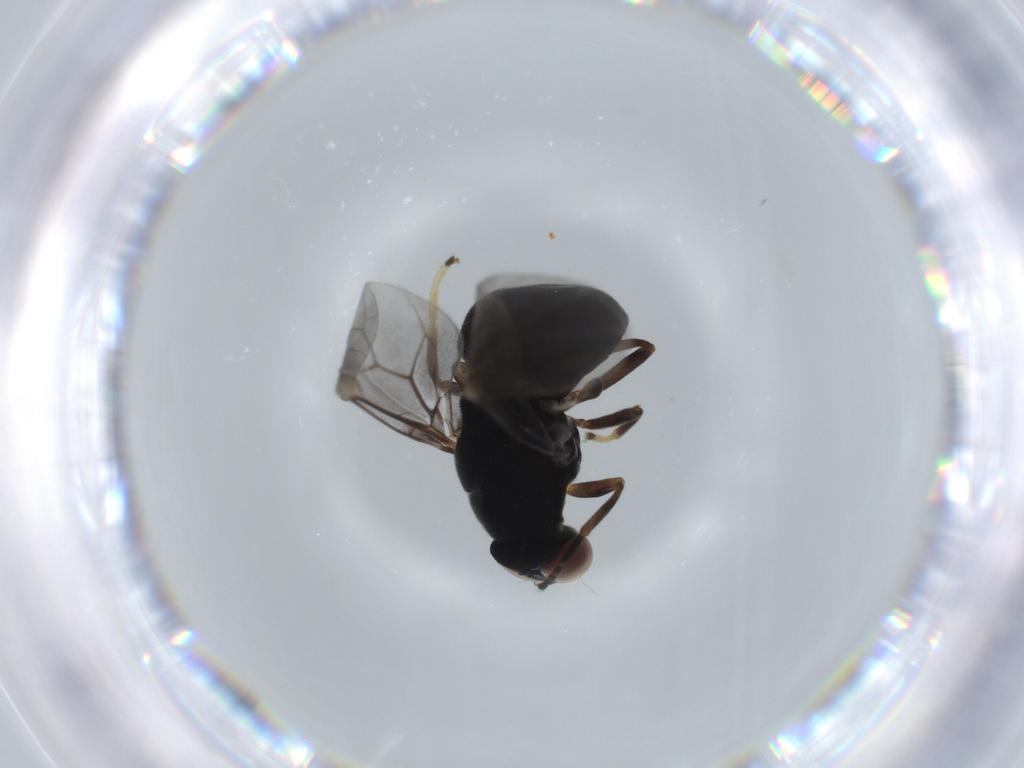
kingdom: Animalia
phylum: Arthropoda
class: Insecta
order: Diptera
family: Stratiomyidae
